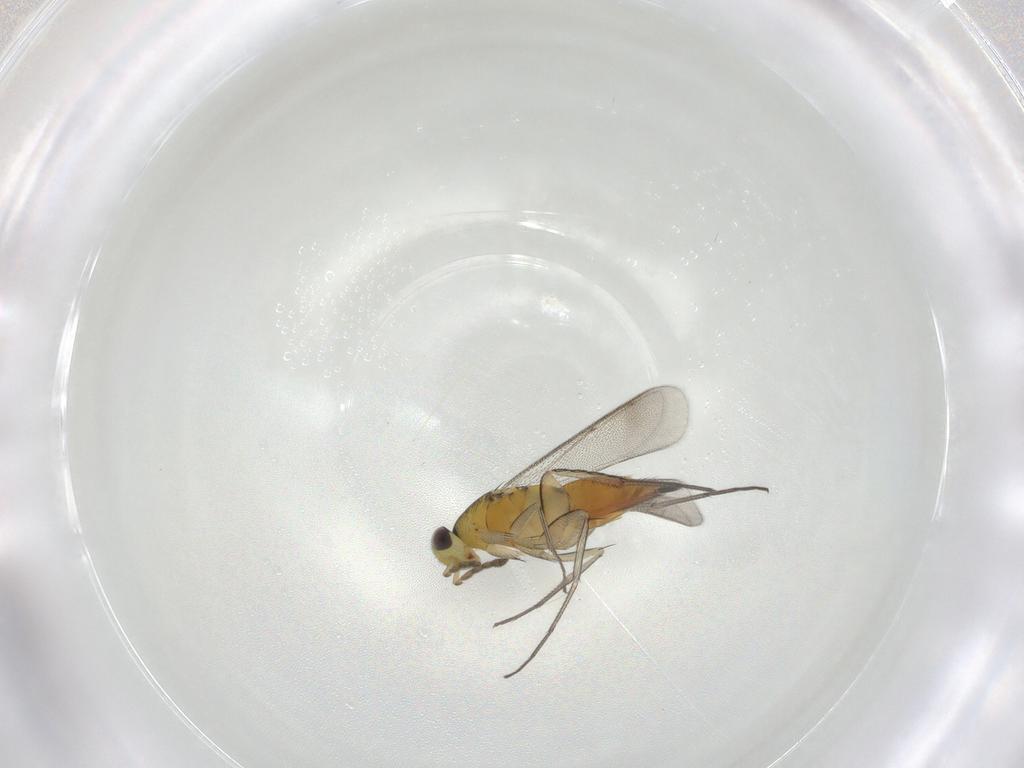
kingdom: Animalia
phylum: Arthropoda
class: Insecta
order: Hymenoptera
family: Eulophidae
